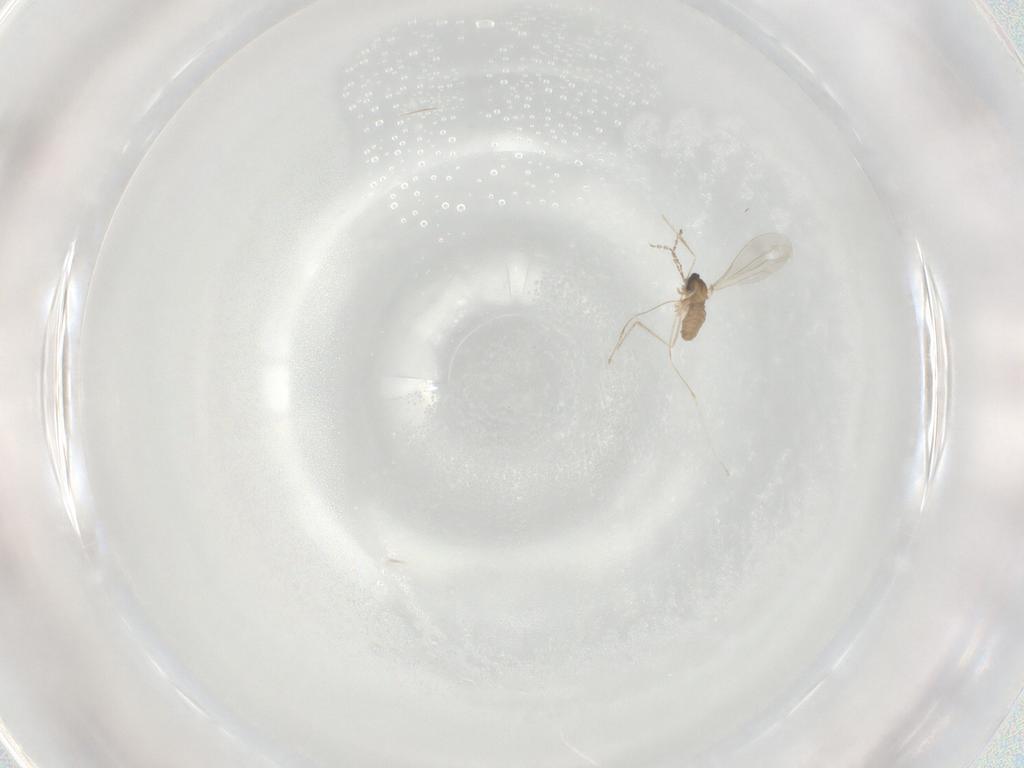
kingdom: Animalia
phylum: Arthropoda
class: Insecta
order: Diptera
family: Cecidomyiidae
